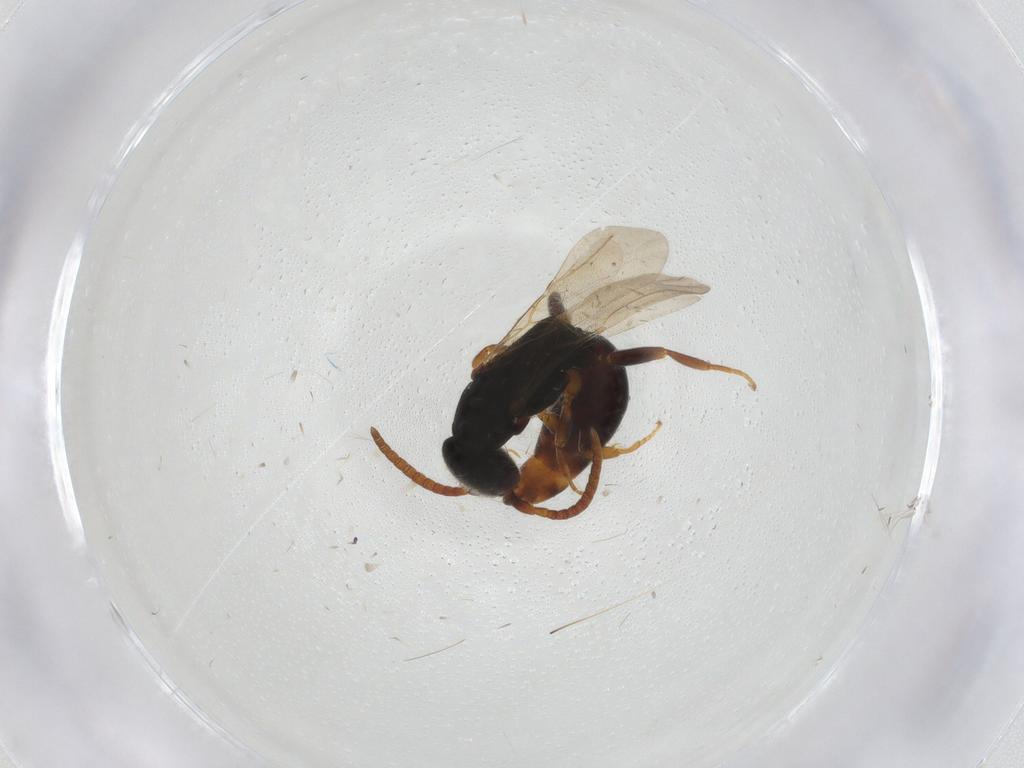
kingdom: Animalia
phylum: Arthropoda
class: Insecta
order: Hymenoptera
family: Bethylidae
